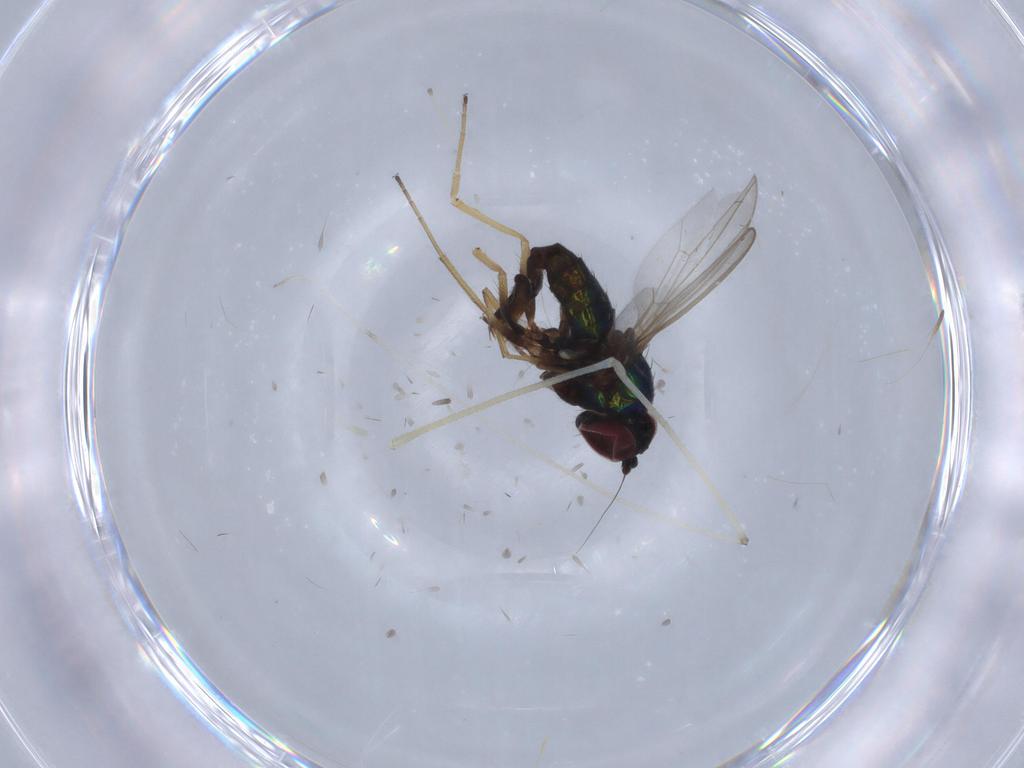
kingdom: Animalia
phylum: Arthropoda
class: Insecta
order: Diptera
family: Dolichopodidae
